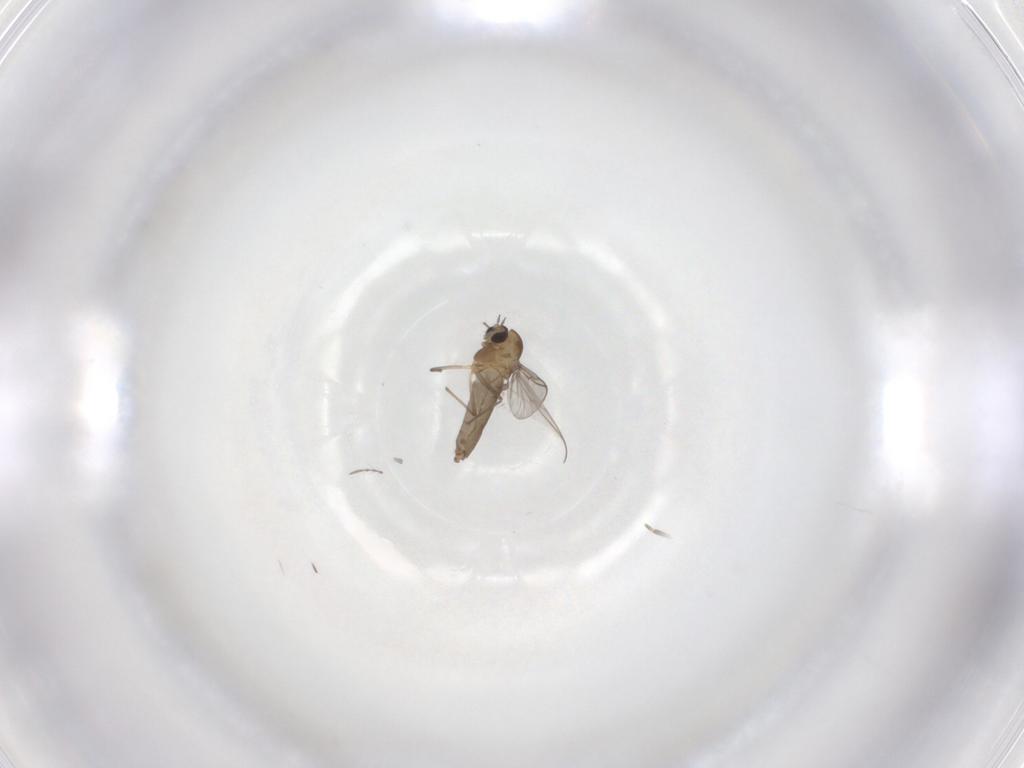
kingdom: Animalia
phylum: Arthropoda
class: Insecta
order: Diptera
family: Chironomidae
